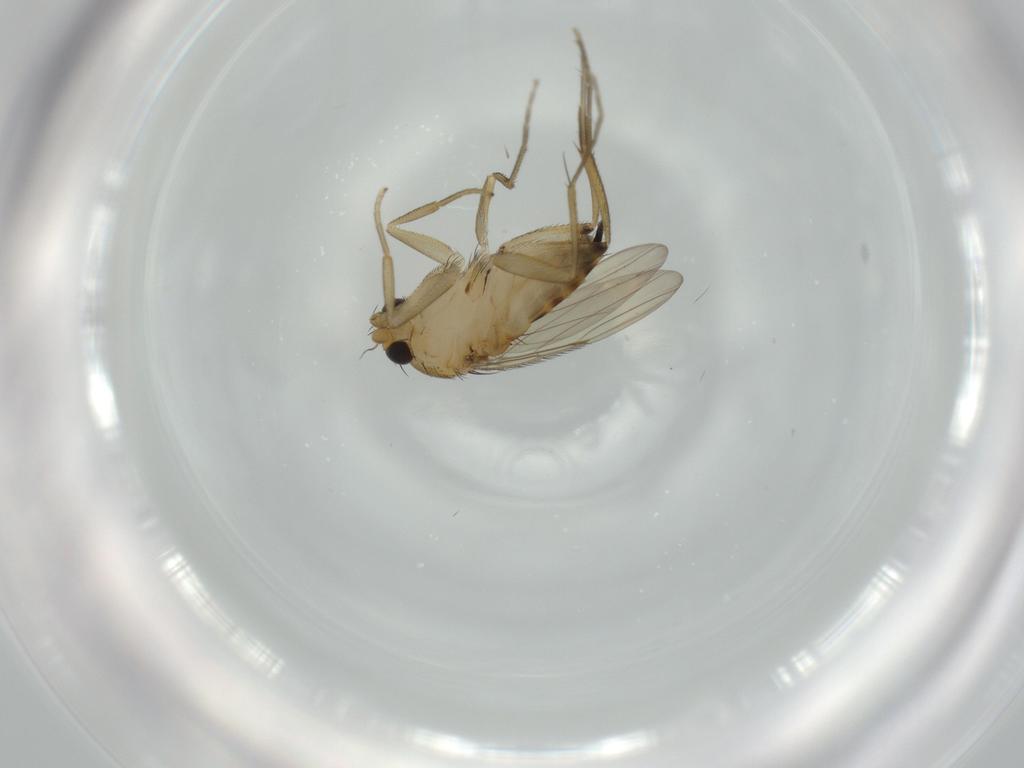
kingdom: Animalia
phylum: Arthropoda
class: Insecta
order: Diptera
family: Phoridae
